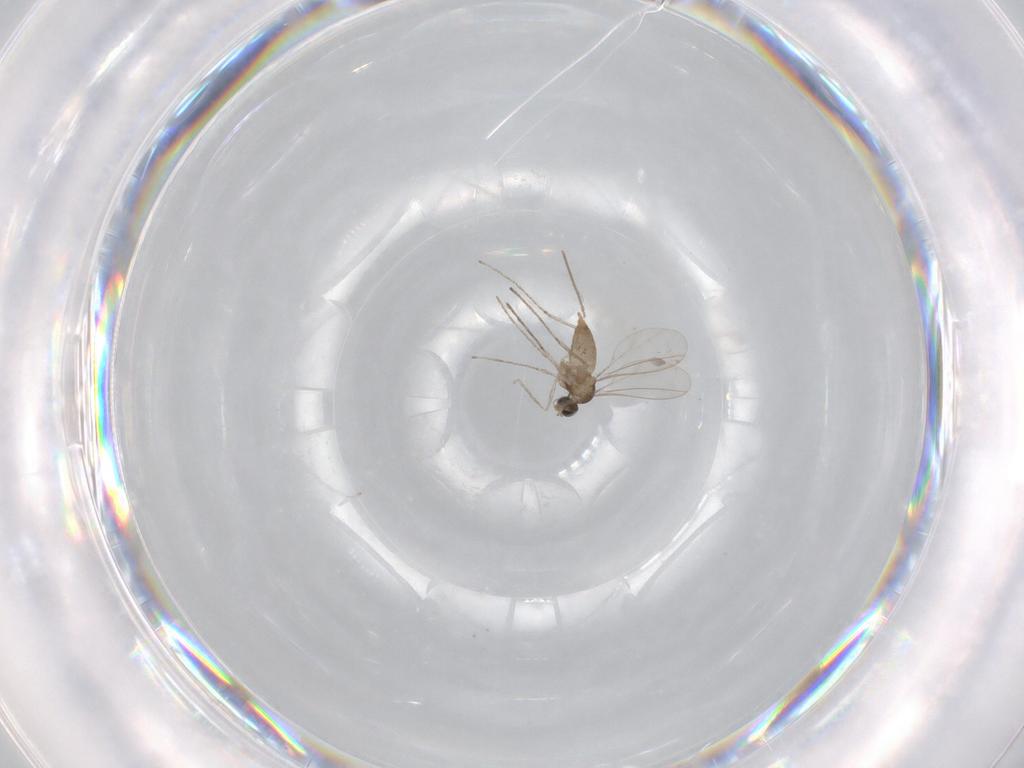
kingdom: Animalia
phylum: Arthropoda
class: Insecta
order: Diptera
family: Cecidomyiidae
